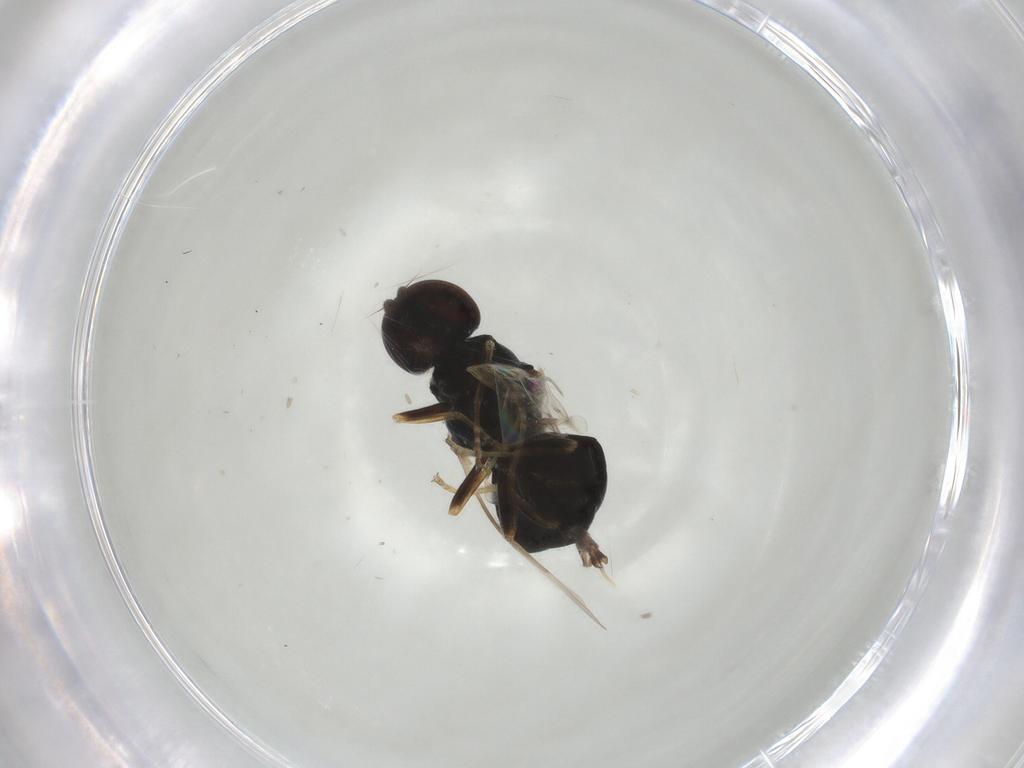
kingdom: Animalia
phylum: Arthropoda
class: Insecta
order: Diptera
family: Stratiomyidae
